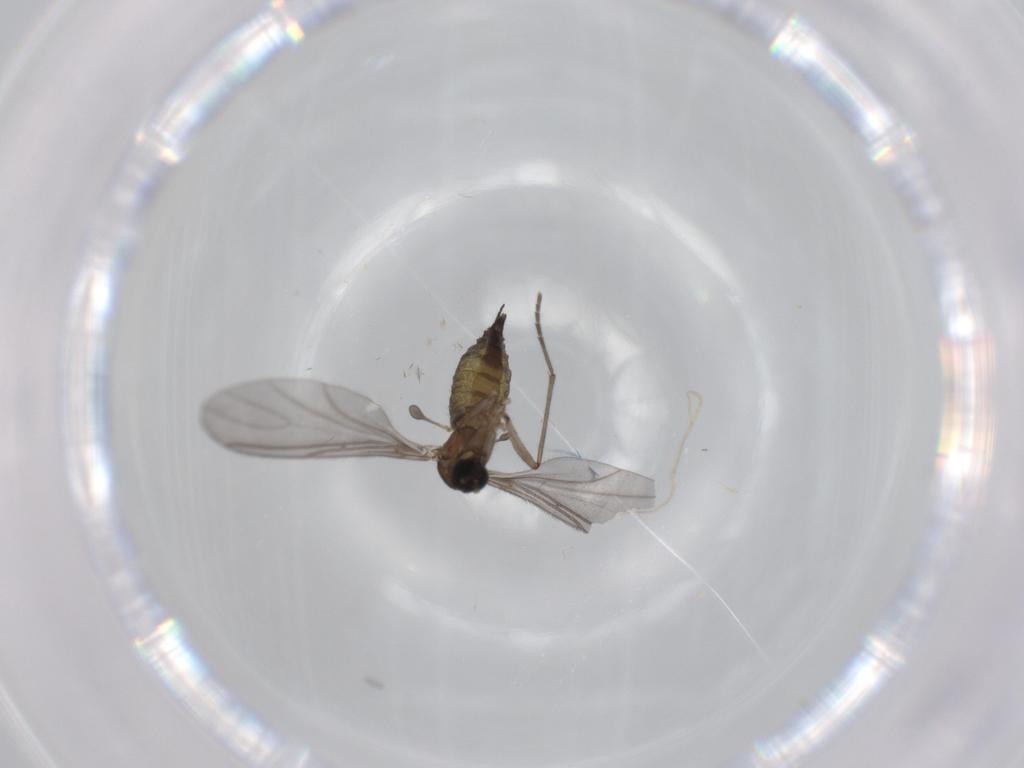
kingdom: Animalia
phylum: Arthropoda
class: Insecta
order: Diptera
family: Sciaridae
